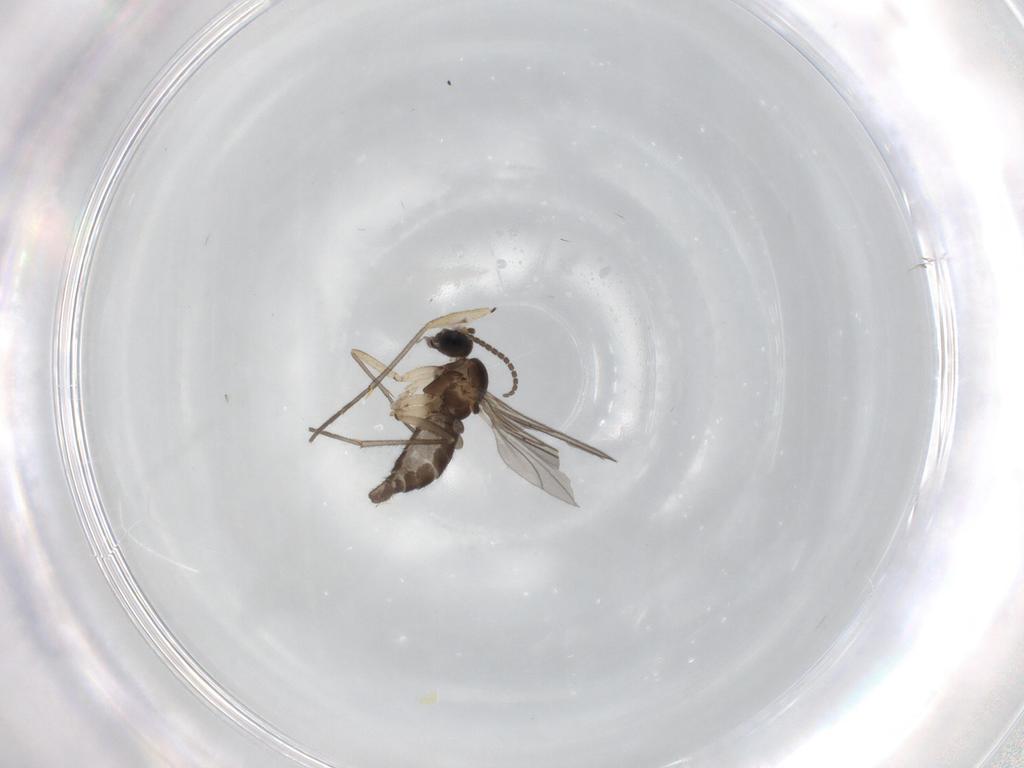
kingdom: Animalia
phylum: Arthropoda
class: Insecta
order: Diptera
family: Sciaridae
